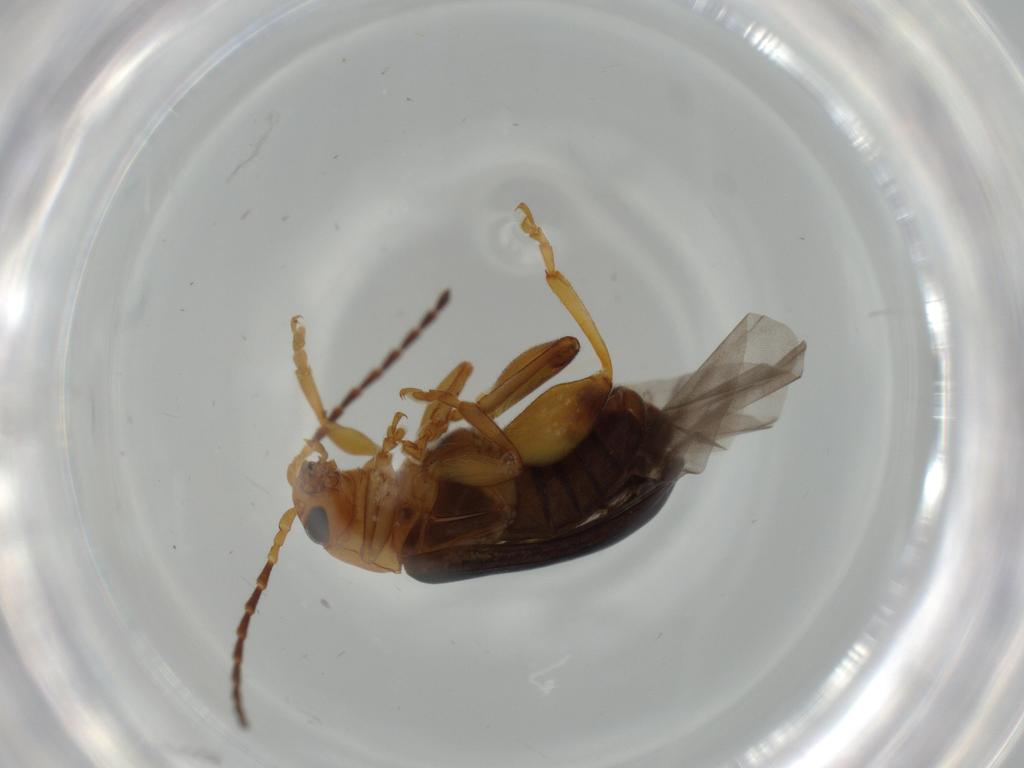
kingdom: Animalia
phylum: Arthropoda
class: Insecta
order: Coleoptera
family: Chrysomelidae
